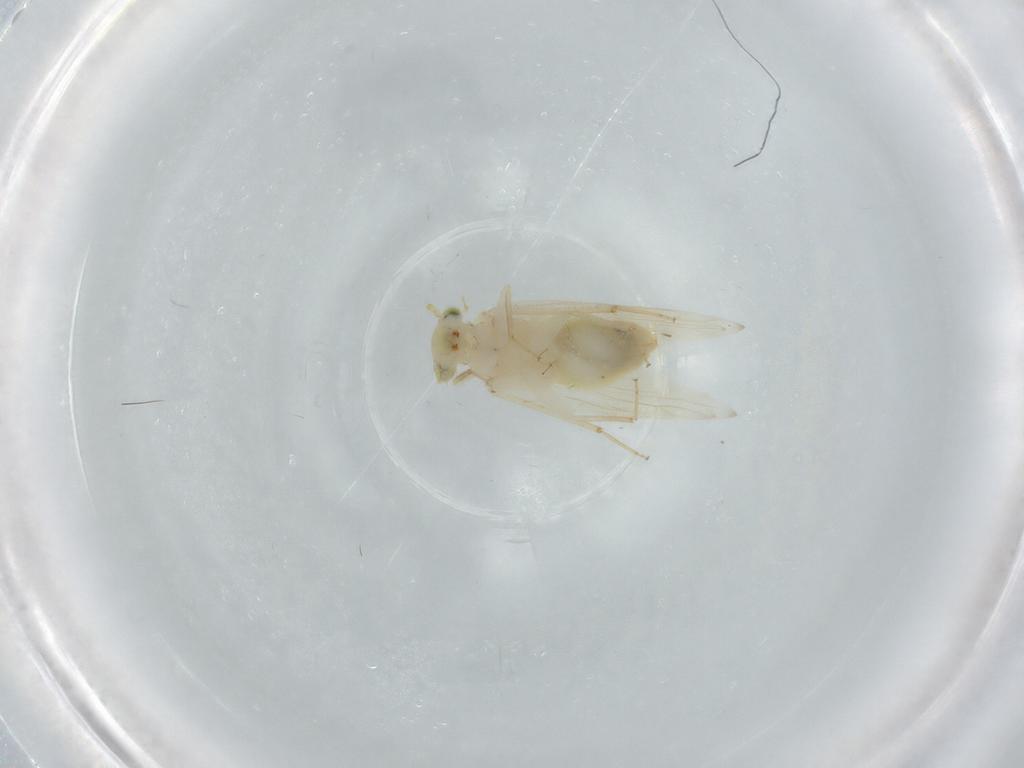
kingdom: Animalia
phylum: Arthropoda
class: Insecta
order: Psocodea
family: Lepidopsocidae
